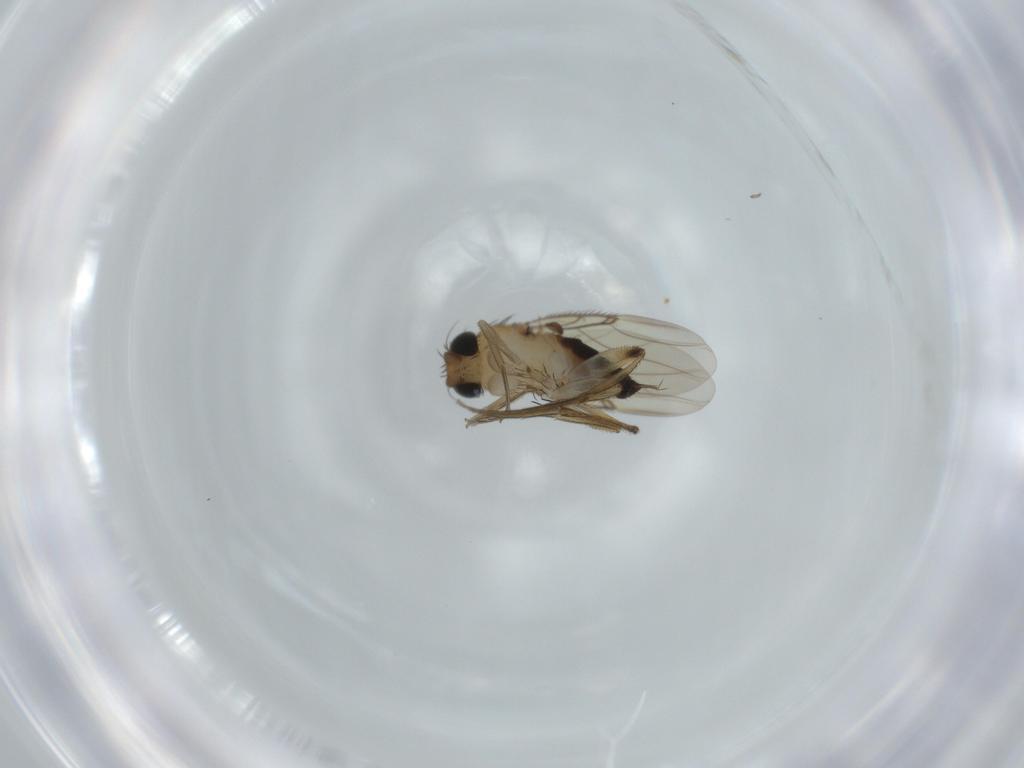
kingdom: Animalia
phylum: Arthropoda
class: Insecta
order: Diptera
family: Phoridae
